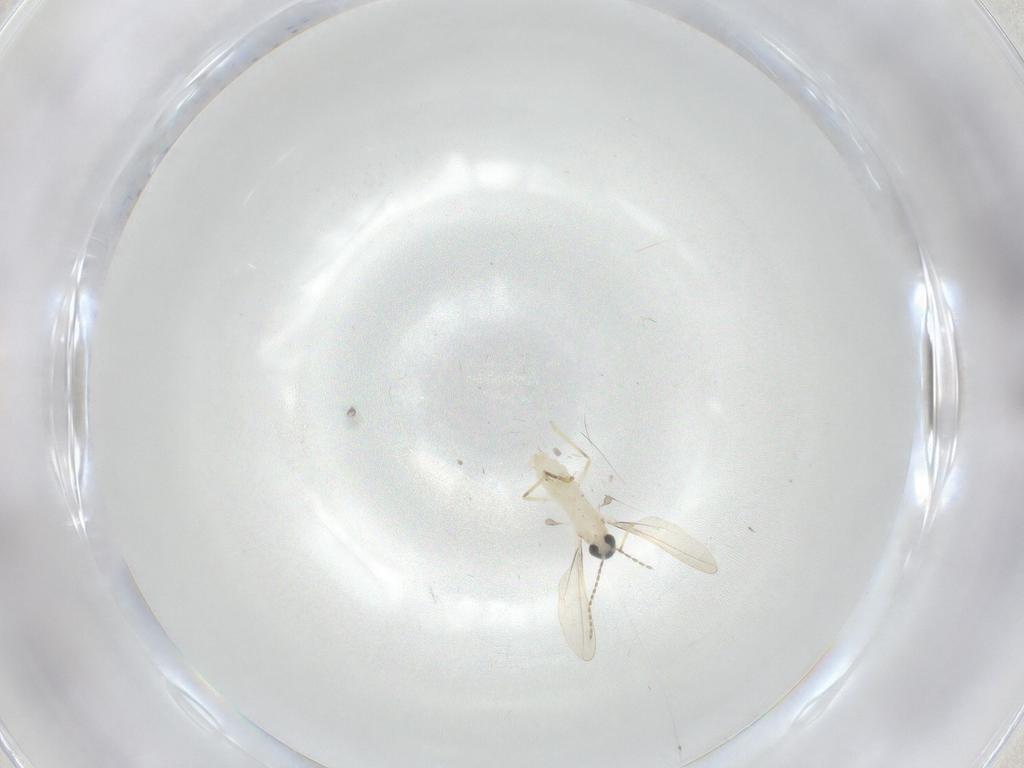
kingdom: Animalia
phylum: Arthropoda
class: Insecta
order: Diptera
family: Cecidomyiidae
